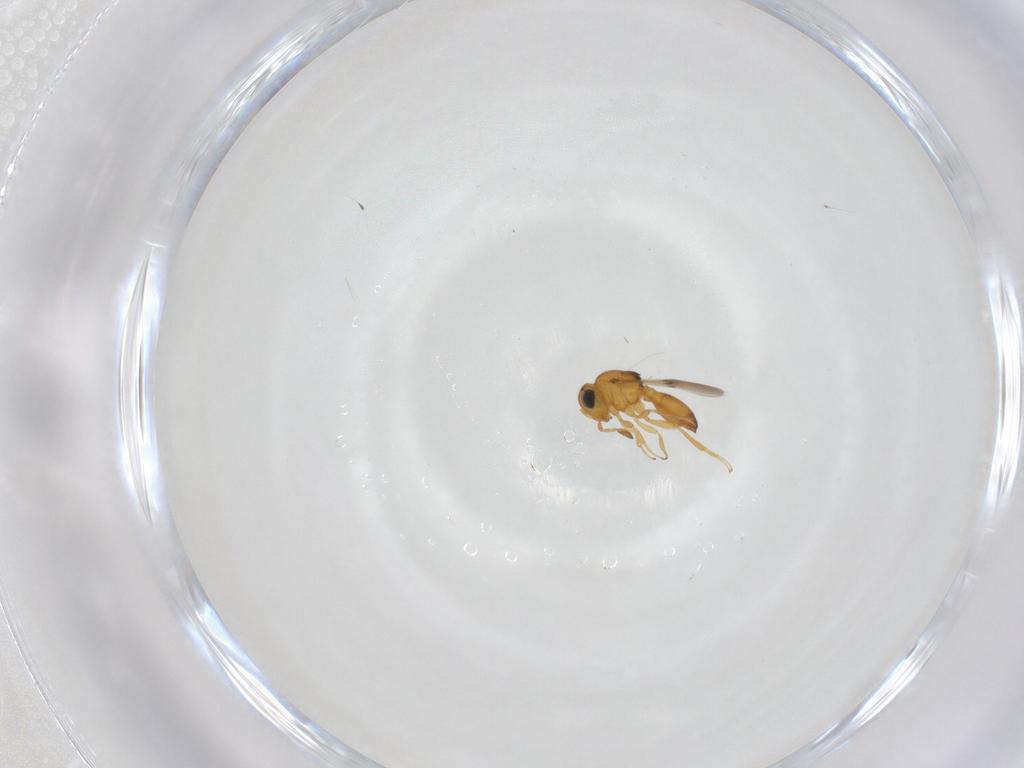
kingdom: Animalia
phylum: Arthropoda
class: Insecta
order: Hymenoptera
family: Scelionidae
